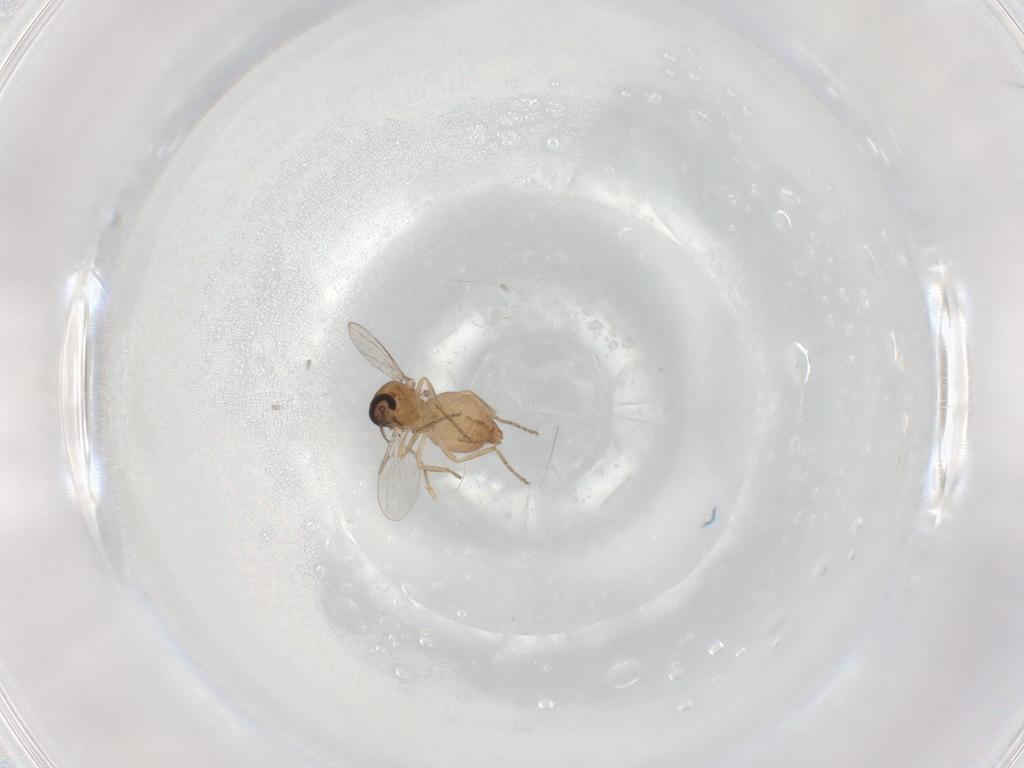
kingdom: Animalia
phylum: Arthropoda
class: Insecta
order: Diptera
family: Ceratopogonidae
